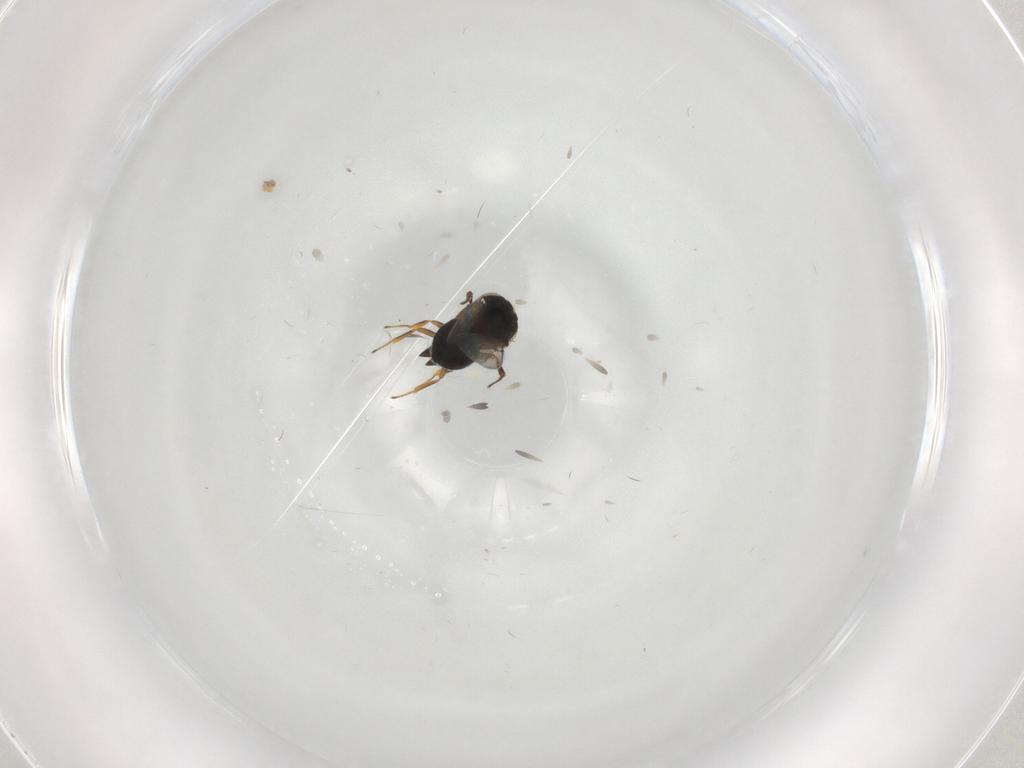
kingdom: Animalia
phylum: Arthropoda
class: Insecta
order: Hymenoptera
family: Scelionidae
